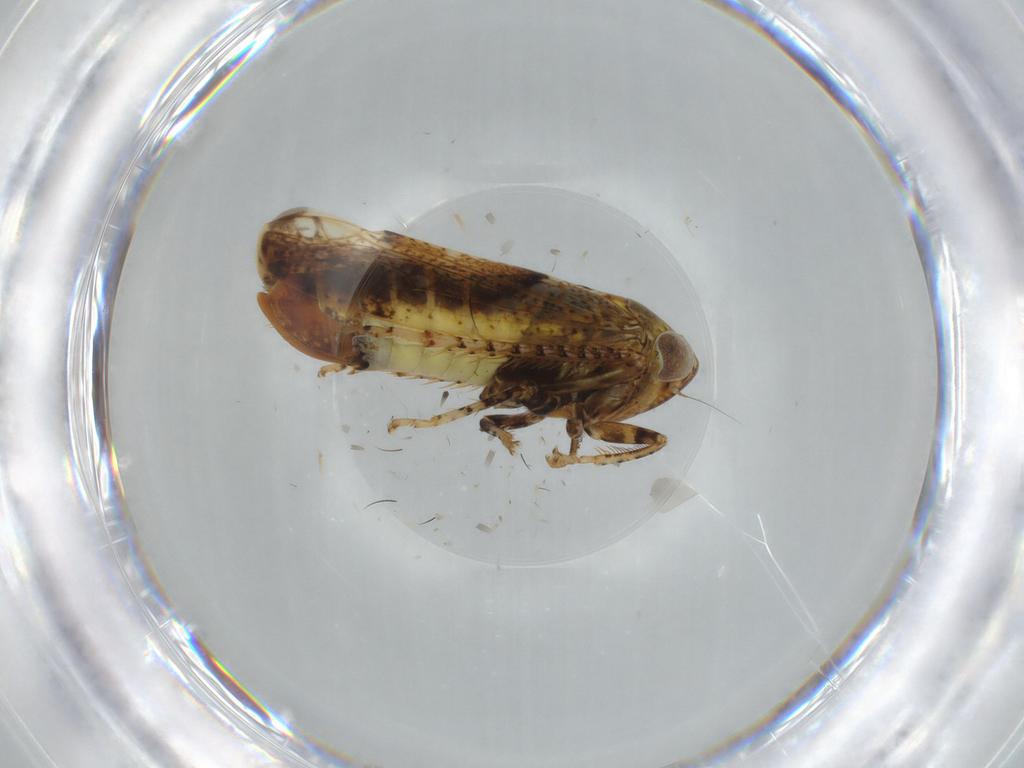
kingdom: Animalia
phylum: Arthropoda
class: Insecta
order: Hemiptera
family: Cicadellidae
